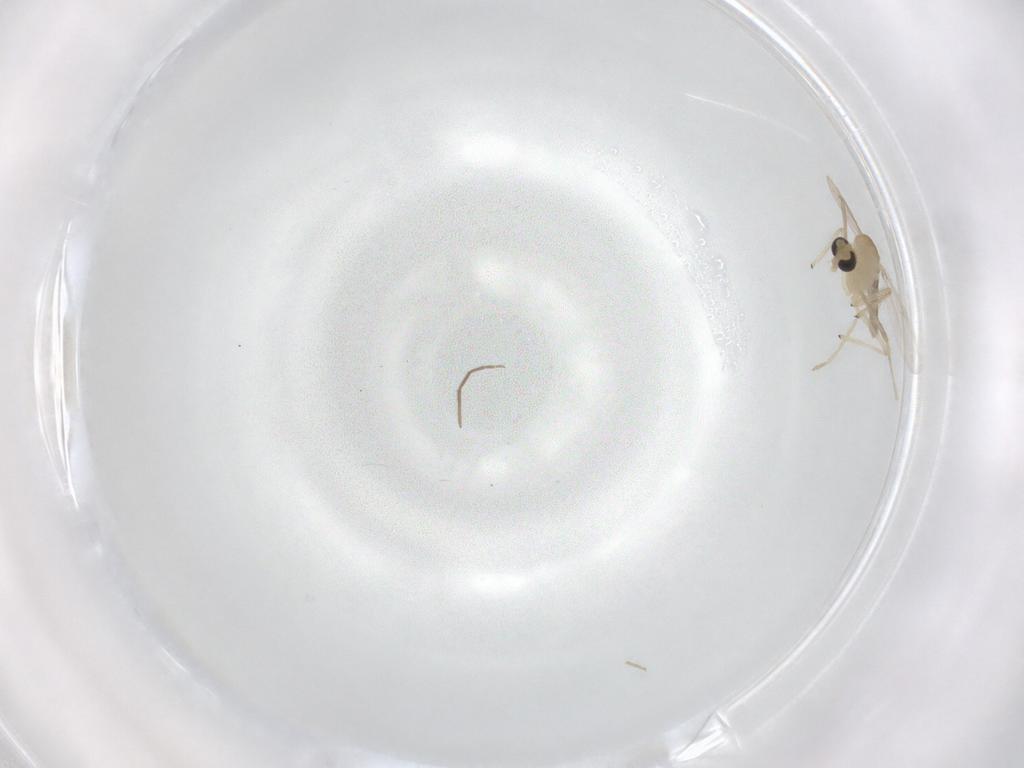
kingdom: Animalia
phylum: Arthropoda
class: Insecta
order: Diptera
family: Chironomidae
